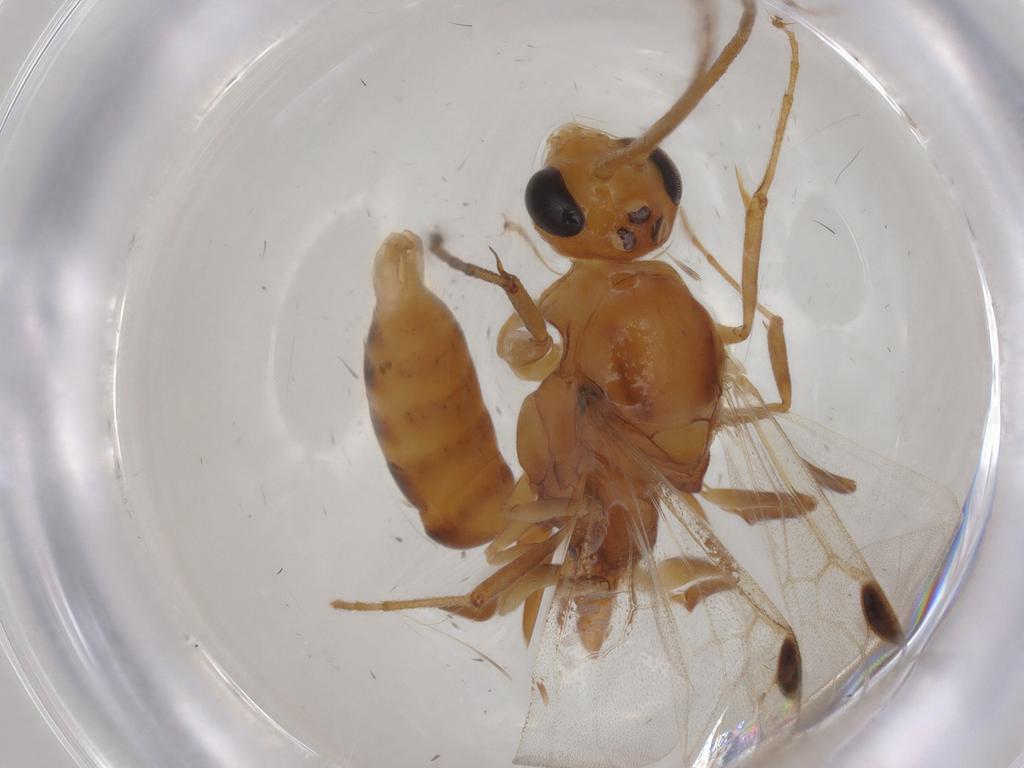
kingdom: Animalia
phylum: Arthropoda
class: Insecta
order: Hymenoptera
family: Formicidae
